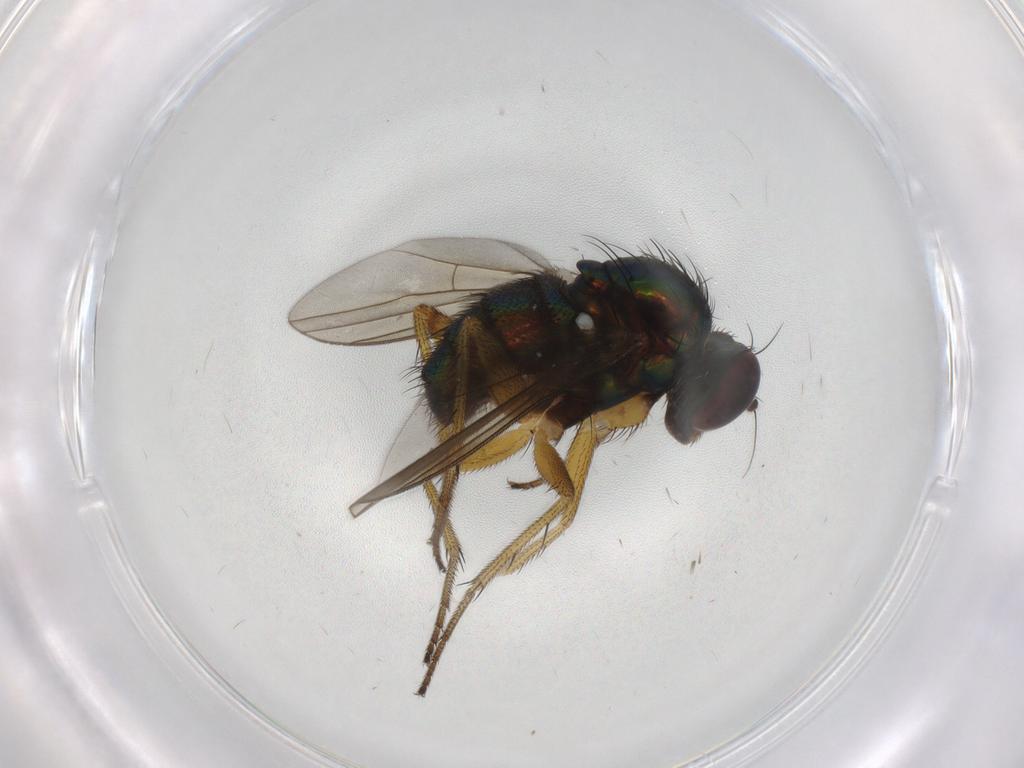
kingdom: Animalia
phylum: Arthropoda
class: Insecta
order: Diptera
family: Dolichopodidae
